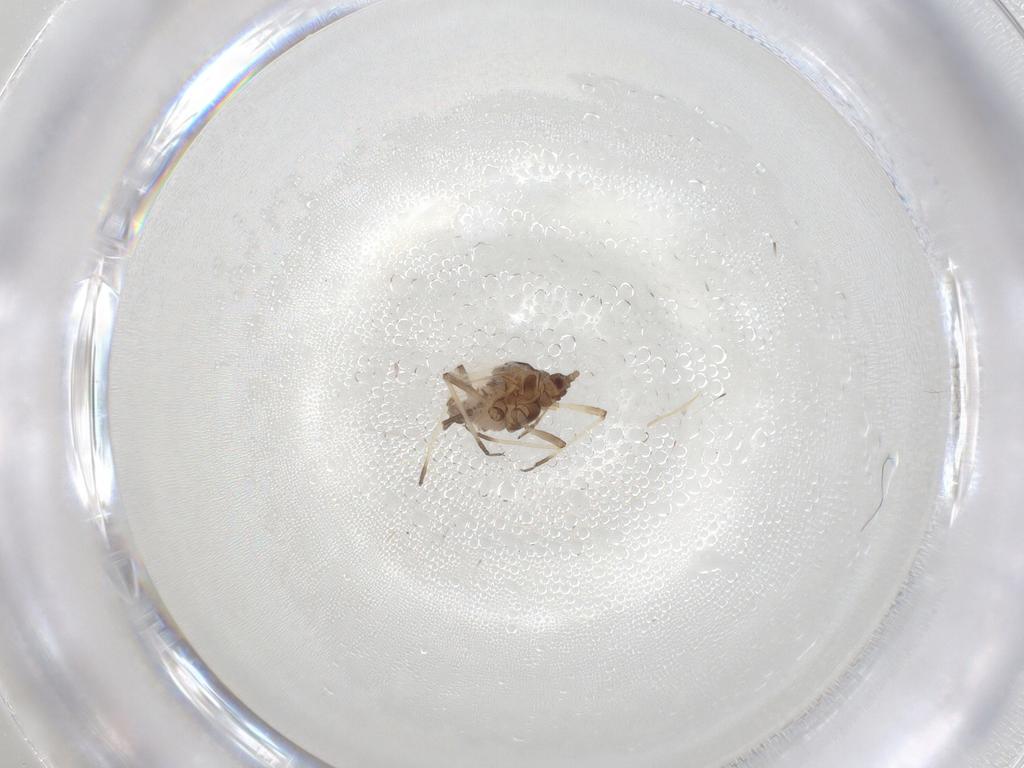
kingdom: Animalia
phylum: Arthropoda
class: Insecta
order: Hemiptera
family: Aphididae
